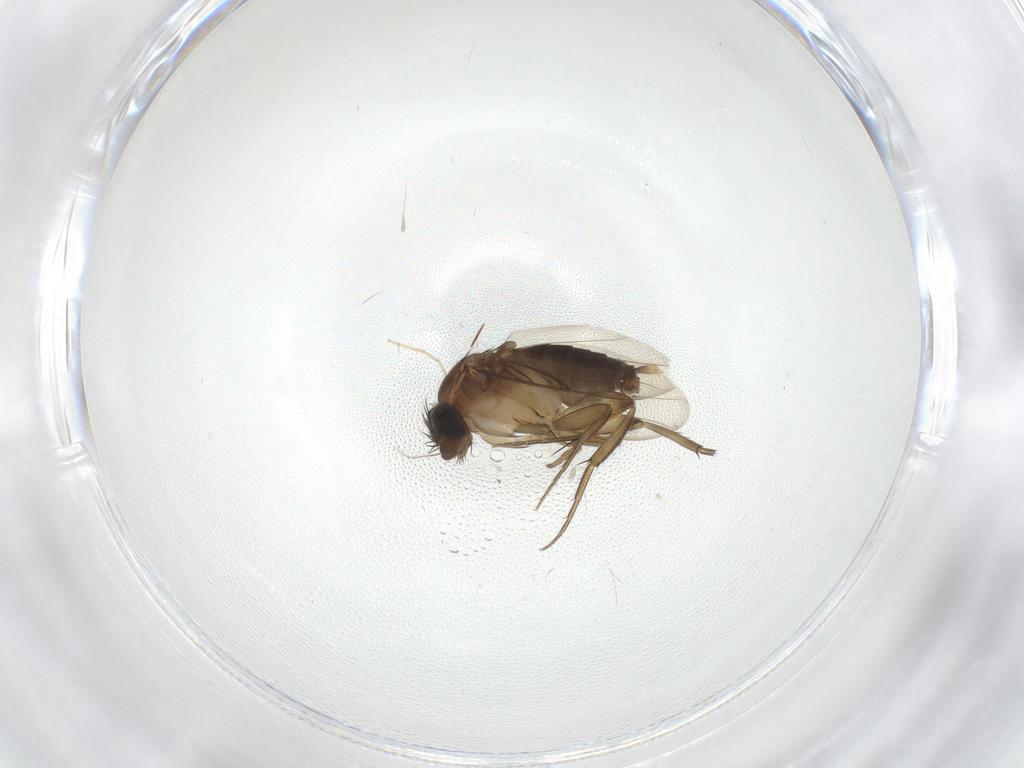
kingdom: Animalia
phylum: Arthropoda
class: Insecta
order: Diptera
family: Phoridae
